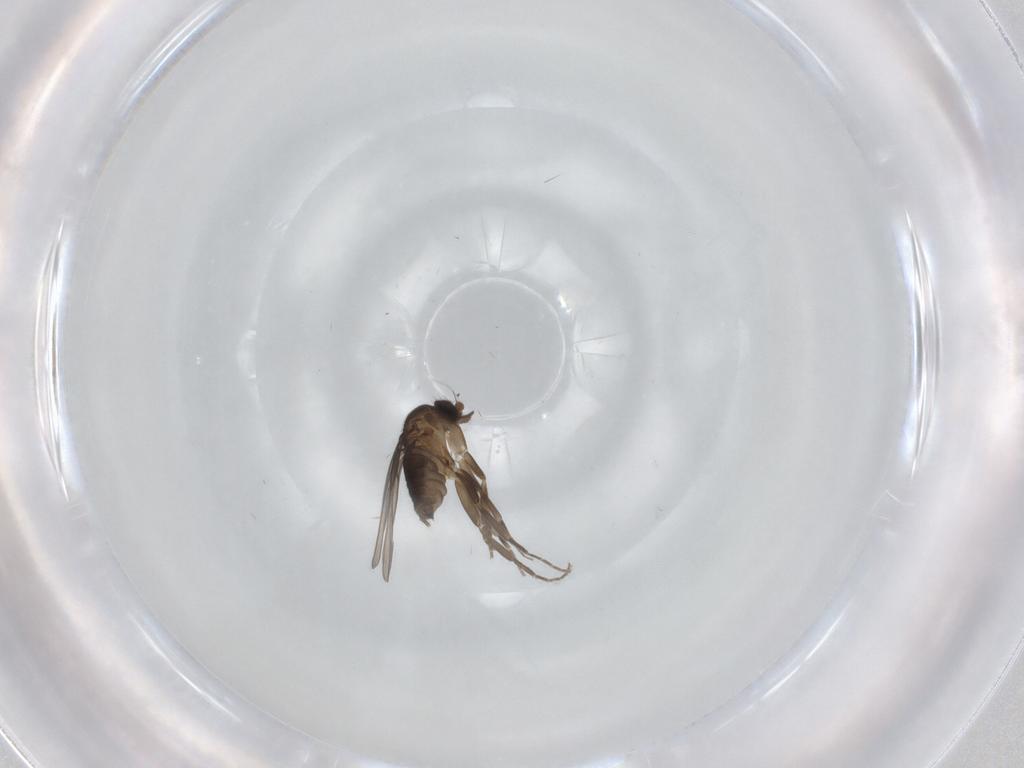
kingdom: Animalia
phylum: Arthropoda
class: Insecta
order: Diptera
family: Phoridae
